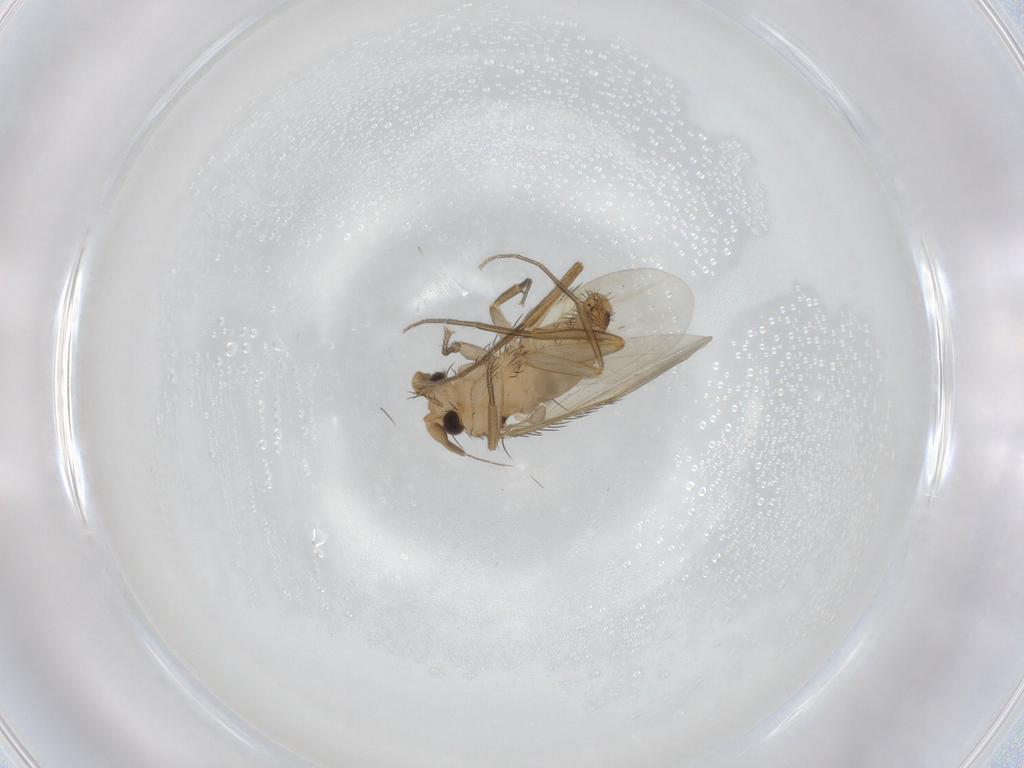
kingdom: Animalia
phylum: Arthropoda
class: Insecta
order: Diptera
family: Phoridae
